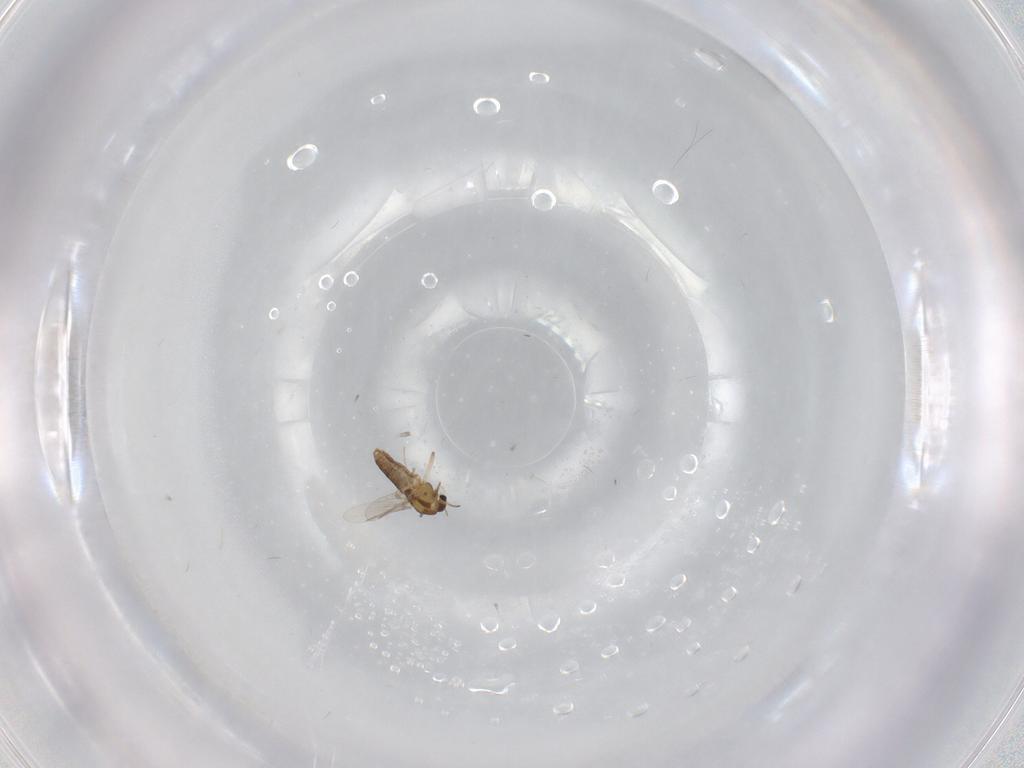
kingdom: Animalia
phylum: Arthropoda
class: Insecta
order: Diptera
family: Chironomidae
